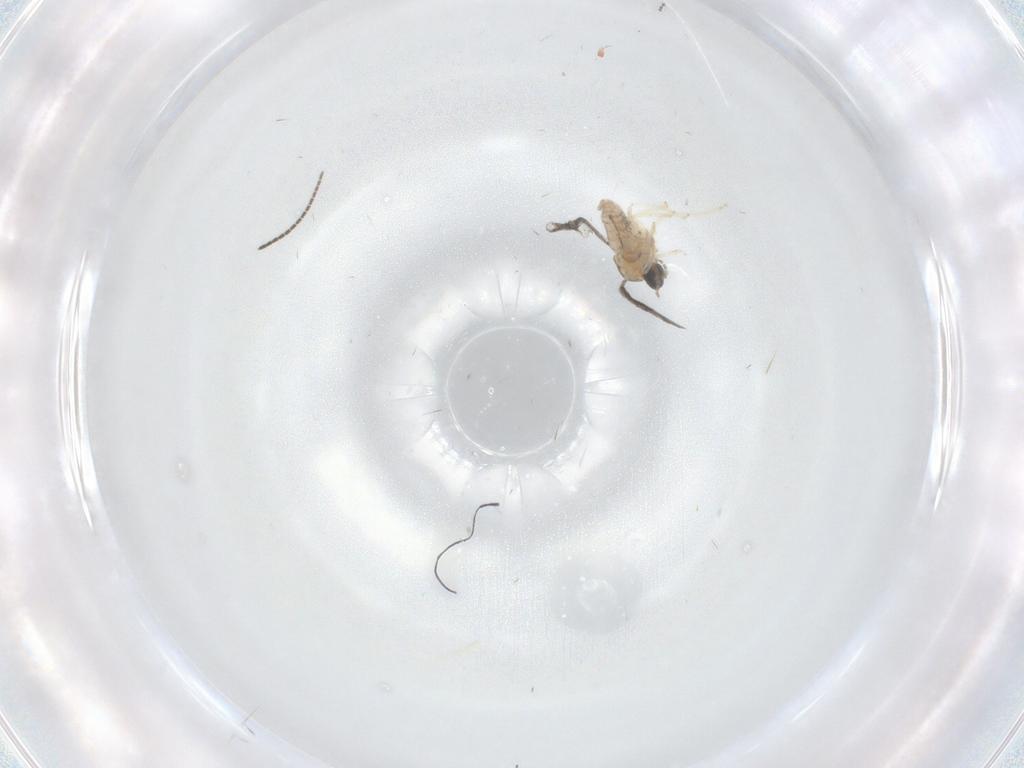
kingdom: Animalia
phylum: Arthropoda
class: Insecta
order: Diptera
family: Cecidomyiidae
